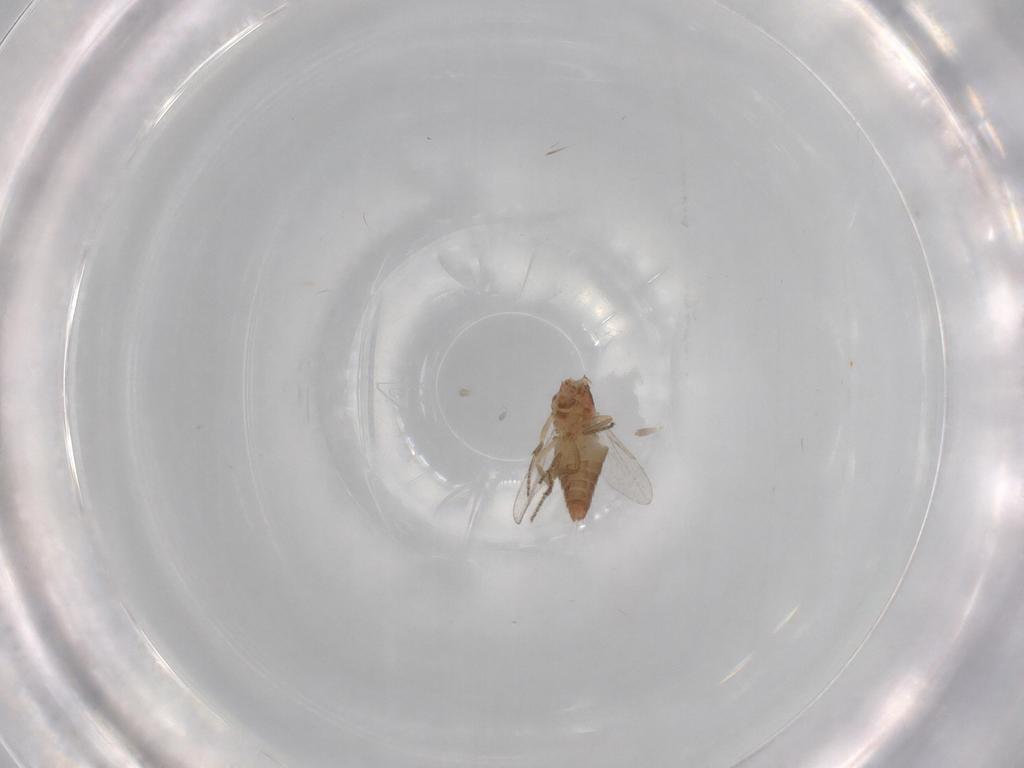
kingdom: Animalia
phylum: Arthropoda
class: Insecta
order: Diptera
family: Ceratopogonidae
